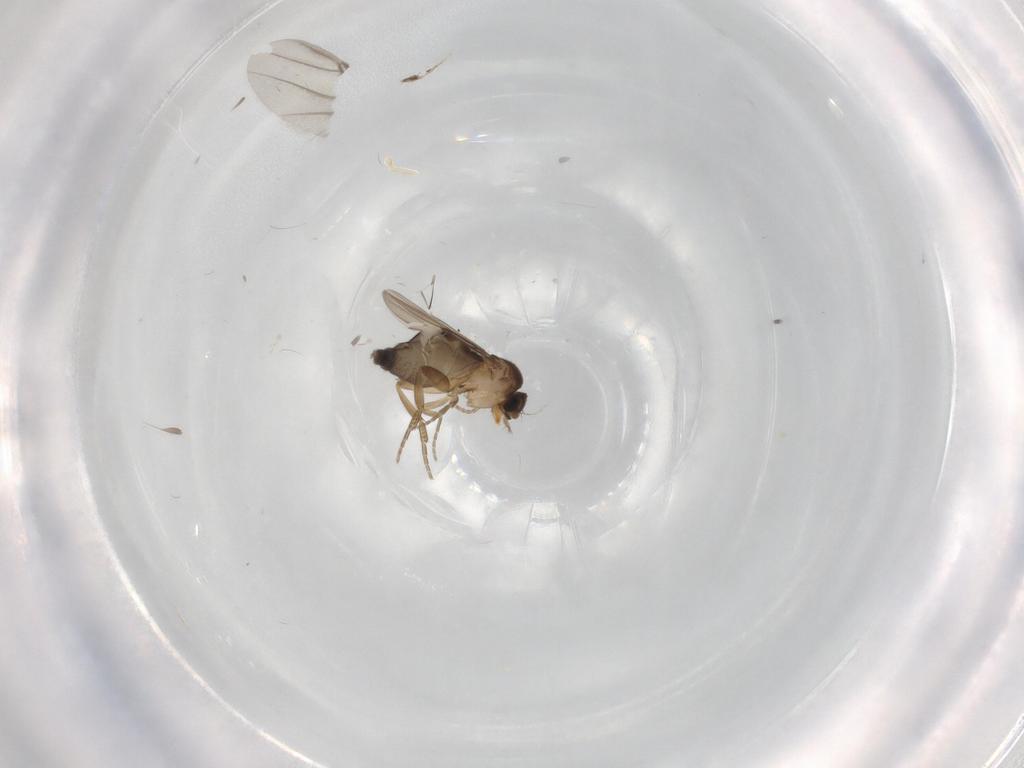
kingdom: Animalia
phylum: Arthropoda
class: Insecta
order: Diptera
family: Phoridae
